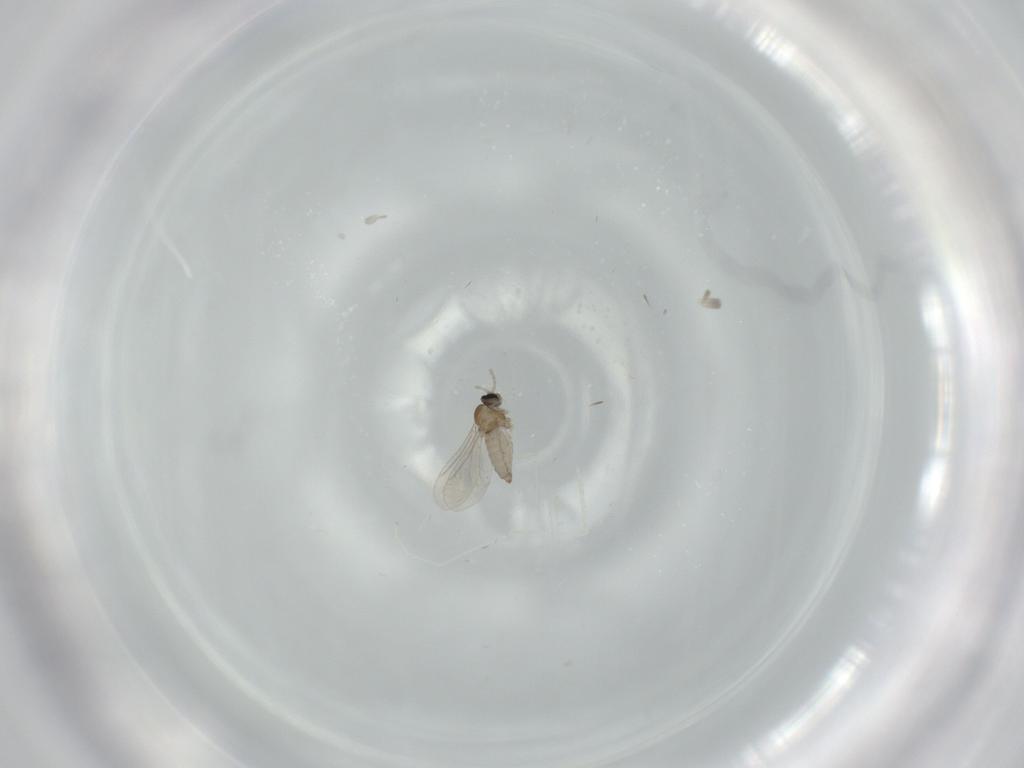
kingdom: Animalia
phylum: Arthropoda
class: Insecta
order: Diptera
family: Cecidomyiidae
